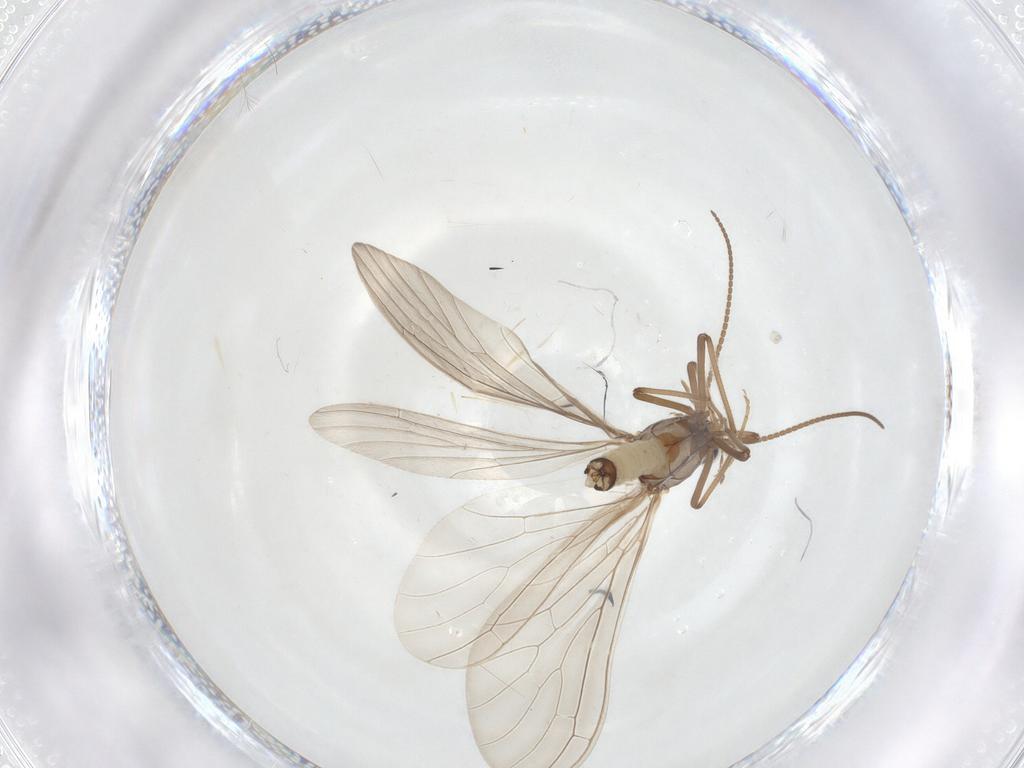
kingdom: Animalia
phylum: Arthropoda
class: Insecta
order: Neuroptera
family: Coniopterygidae
